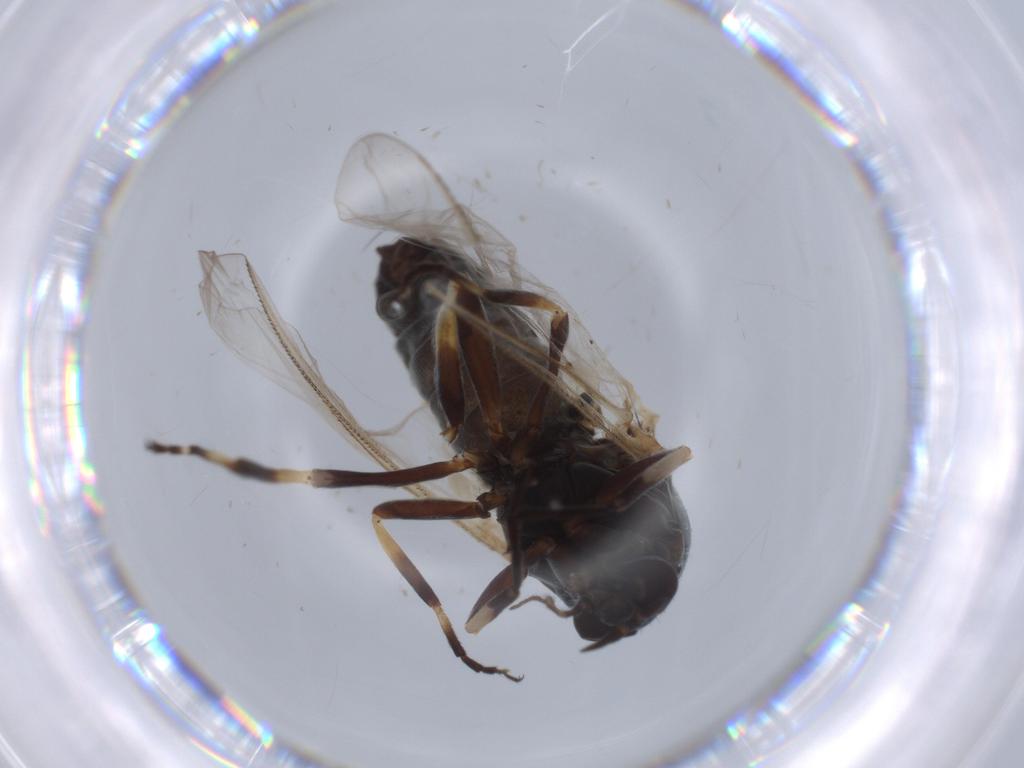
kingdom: Animalia
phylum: Arthropoda
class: Insecta
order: Diptera
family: Simuliidae
